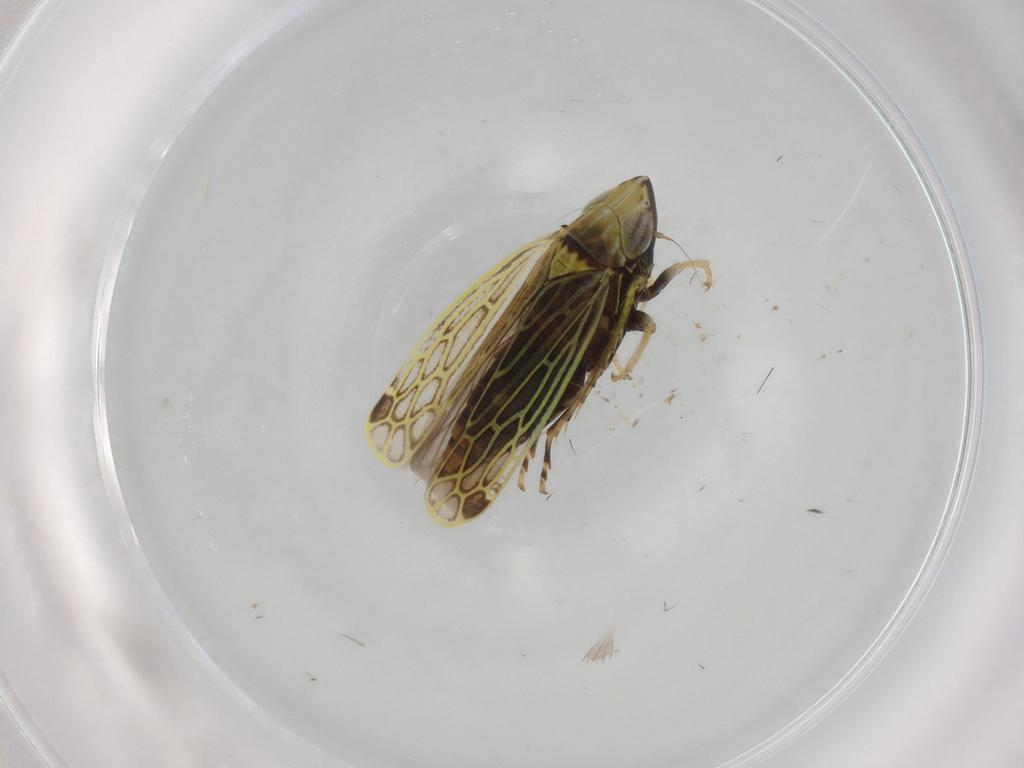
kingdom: Animalia
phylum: Arthropoda
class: Insecta
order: Hemiptera
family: Cicadellidae
